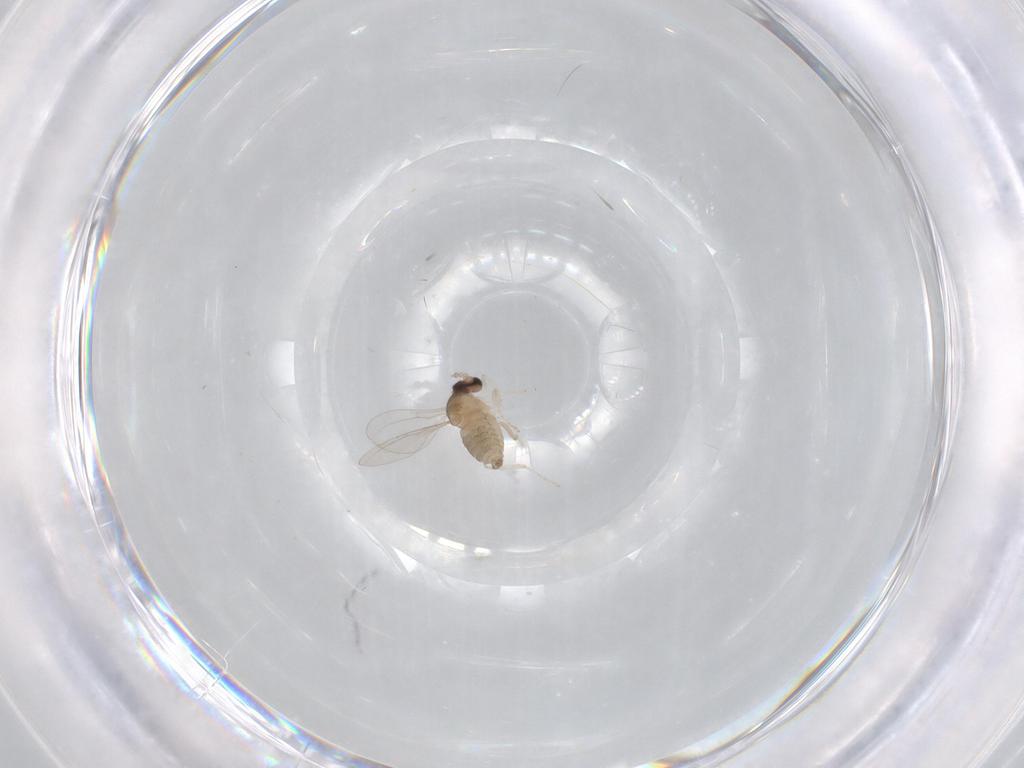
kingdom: Animalia
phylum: Arthropoda
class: Insecta
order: Diptera
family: Cecidomyiidae
